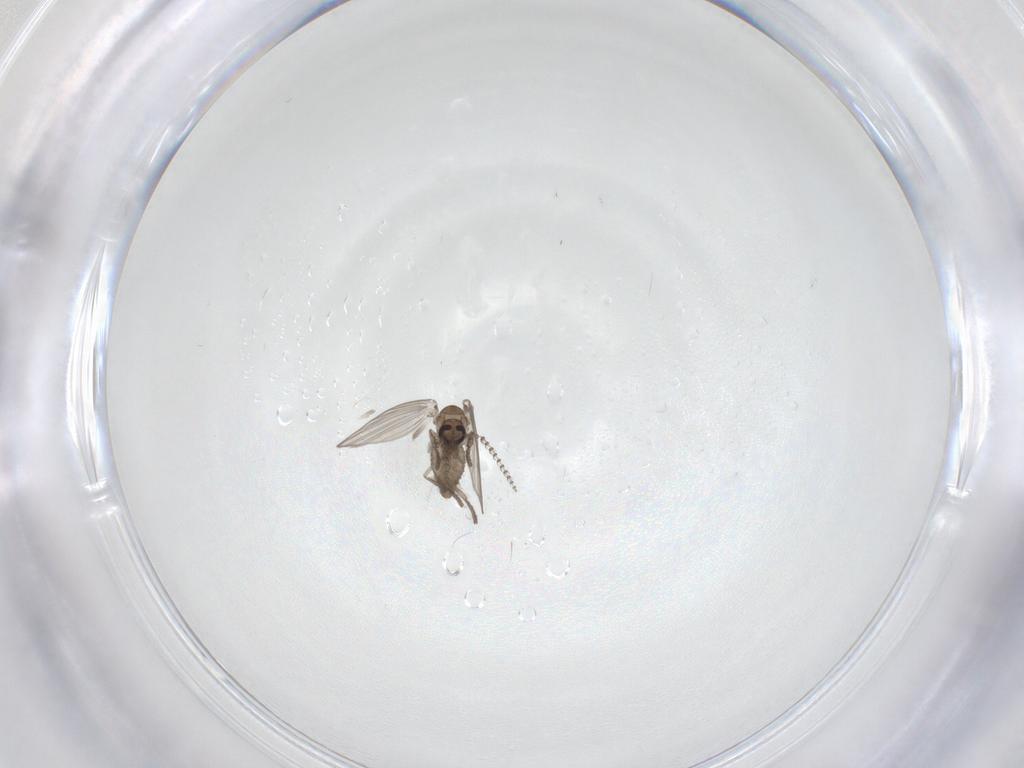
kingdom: Animalia
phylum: Arthropoda
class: Insecta
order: Diptera
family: Psychodidae
